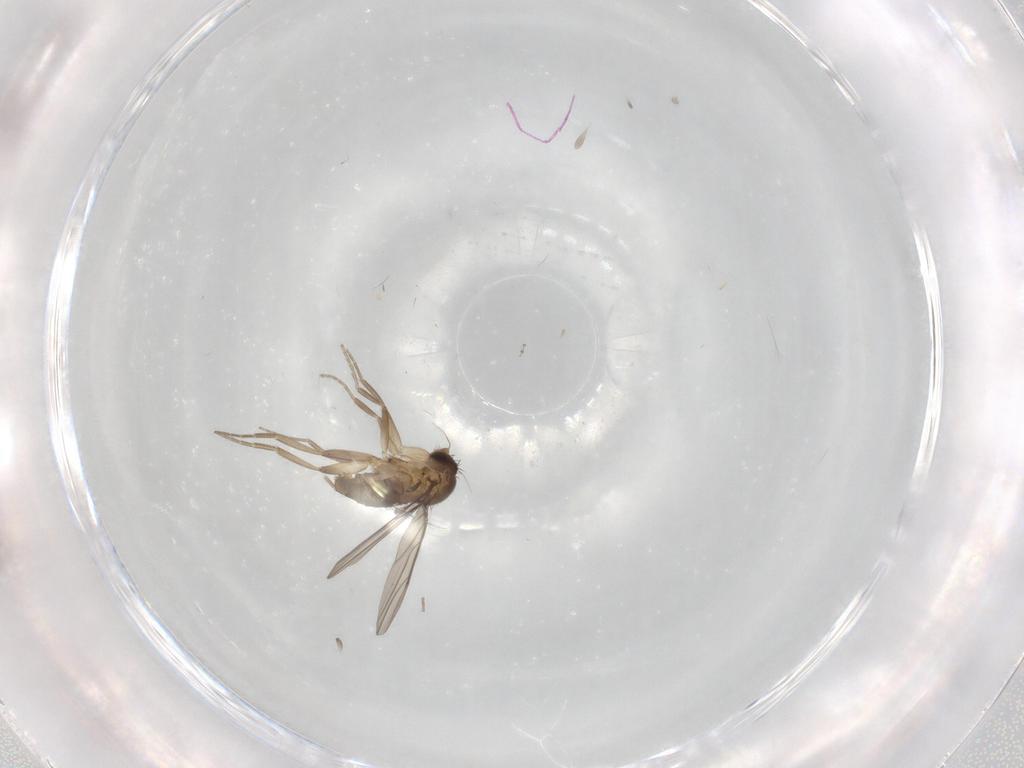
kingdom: Animalia
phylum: Arthropoda
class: Insecta
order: Diptera
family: Phoridae
